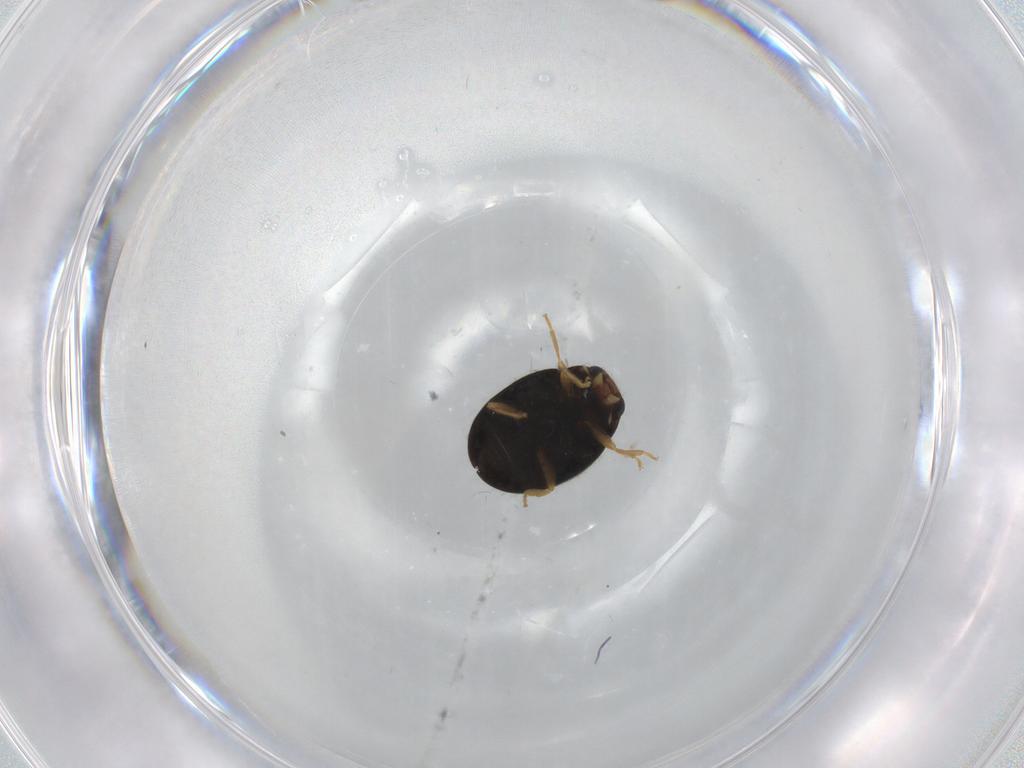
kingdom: Animalia
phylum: Arthropoda
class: Insecta
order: Coleoptera
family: Coccinellidae
